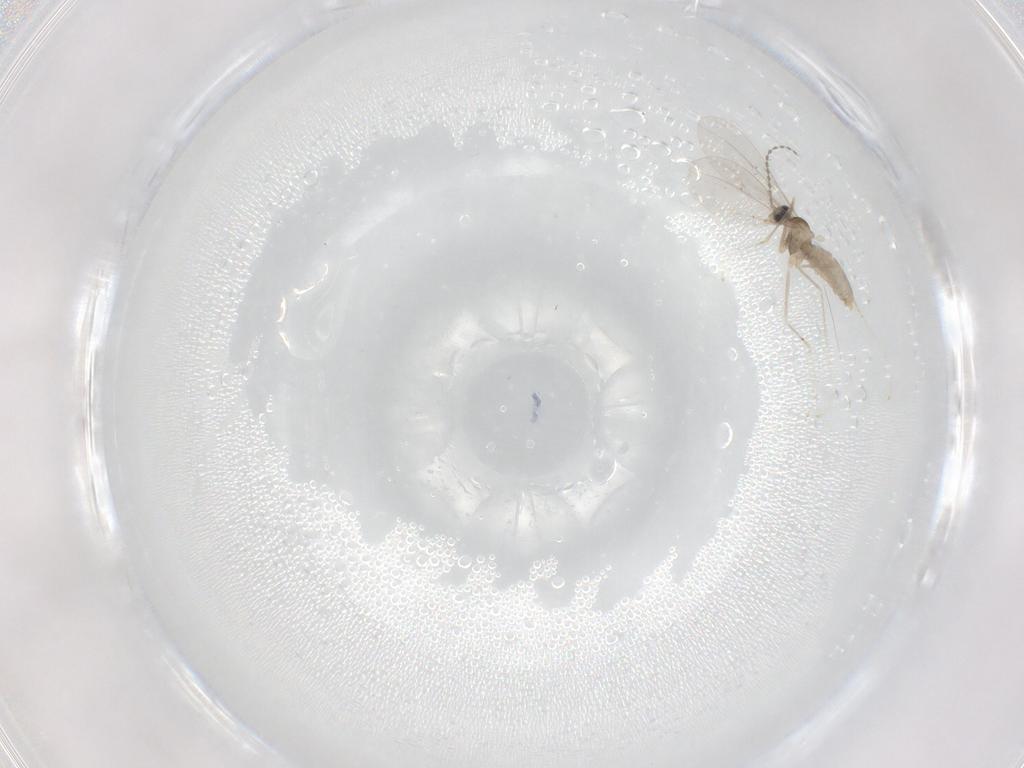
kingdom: Animalia
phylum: Arthropoda
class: Insecta
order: Diptera
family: Cecidomyiidae
